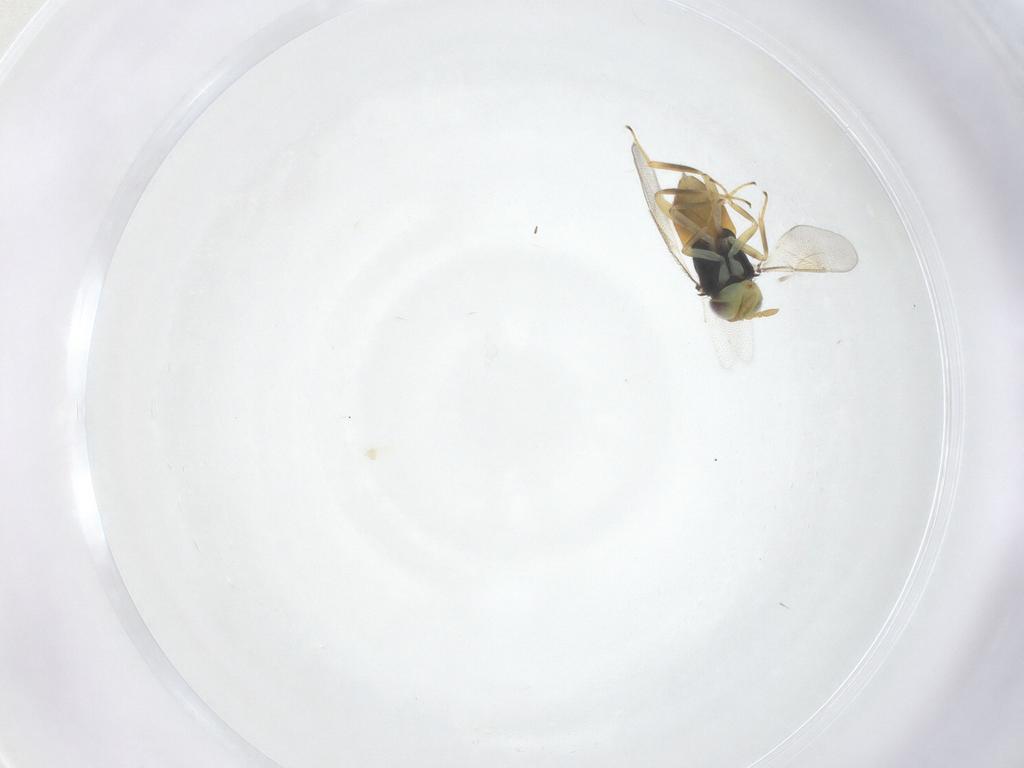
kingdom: Animalia
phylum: Arthropoda
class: Insecta
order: Hymenoptera
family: Aphelinidae
